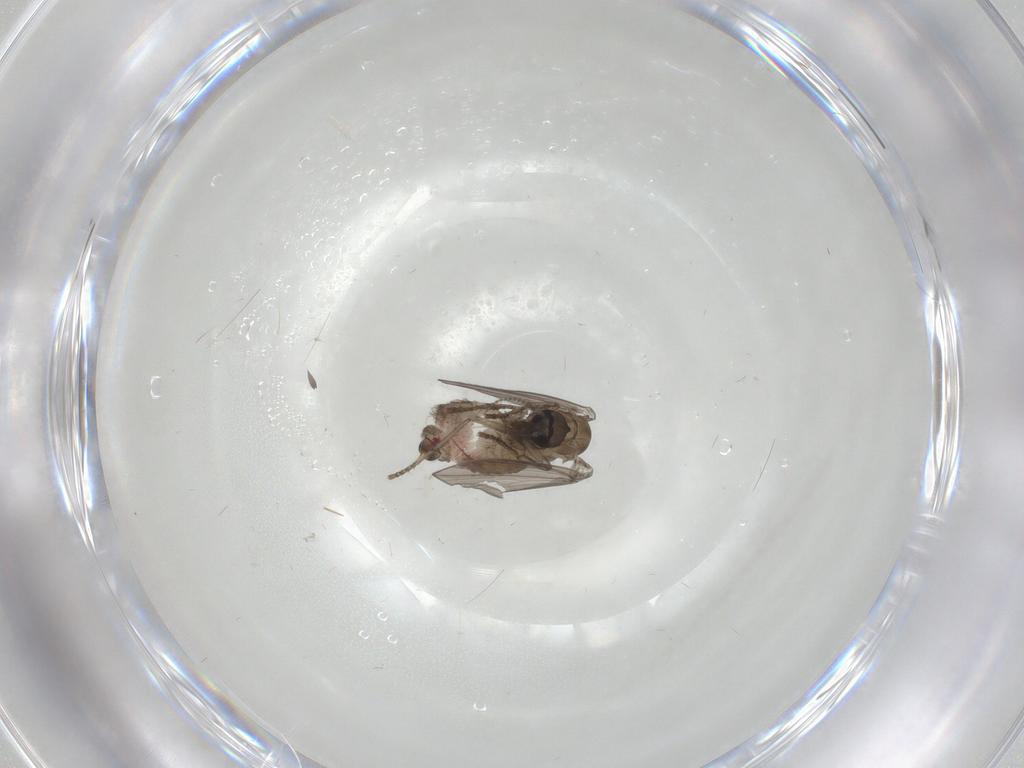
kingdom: Animalia
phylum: Arthropoda
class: Insecta
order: Diptera
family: Psychodidae
